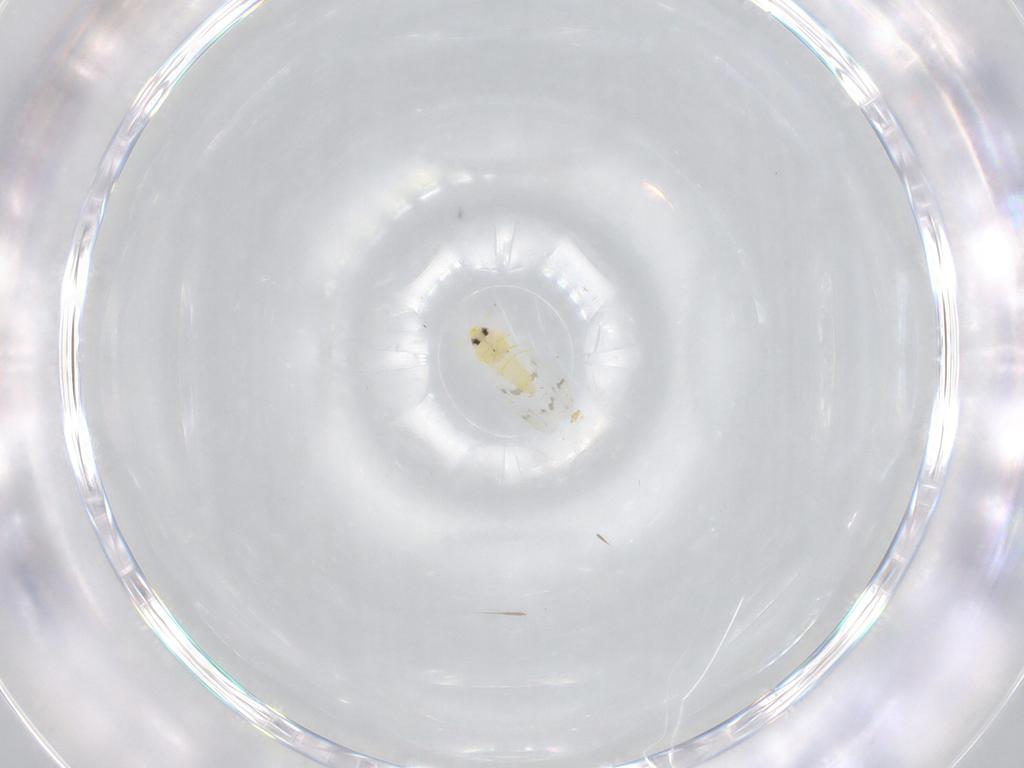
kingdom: Animalia
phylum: Arthropoda
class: Insecta
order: Hemiptera
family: Aleyrodidae
